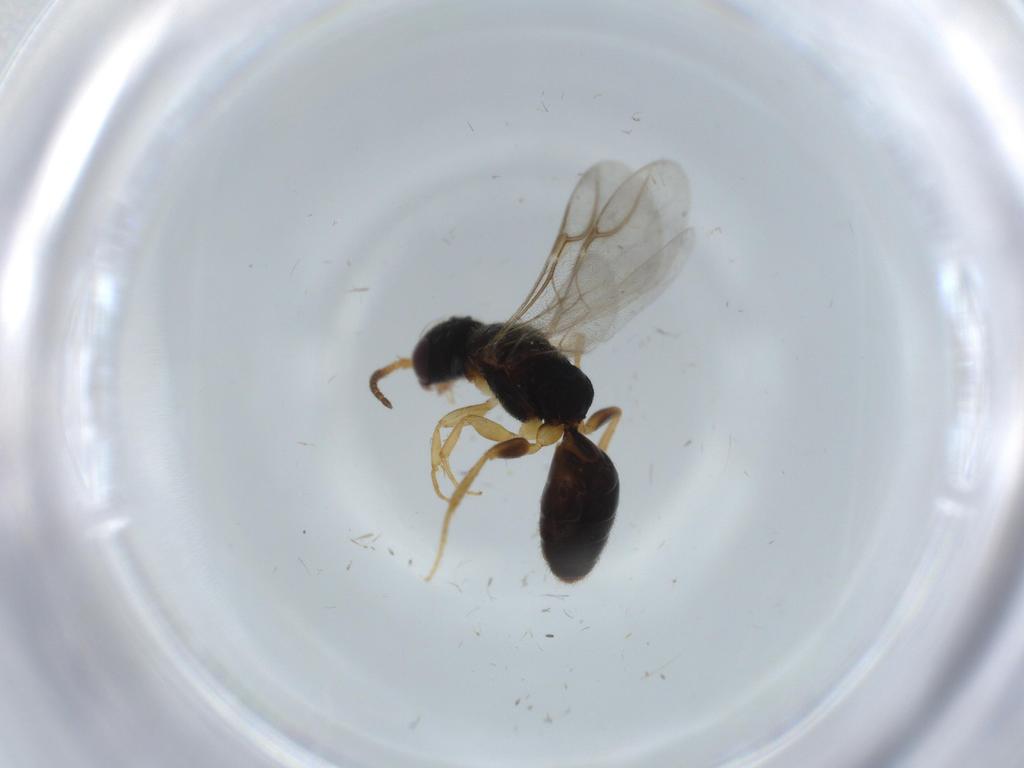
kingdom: Animalia
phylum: Arthropoda
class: Insecta
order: Hymenoptera
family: Bethylidae
